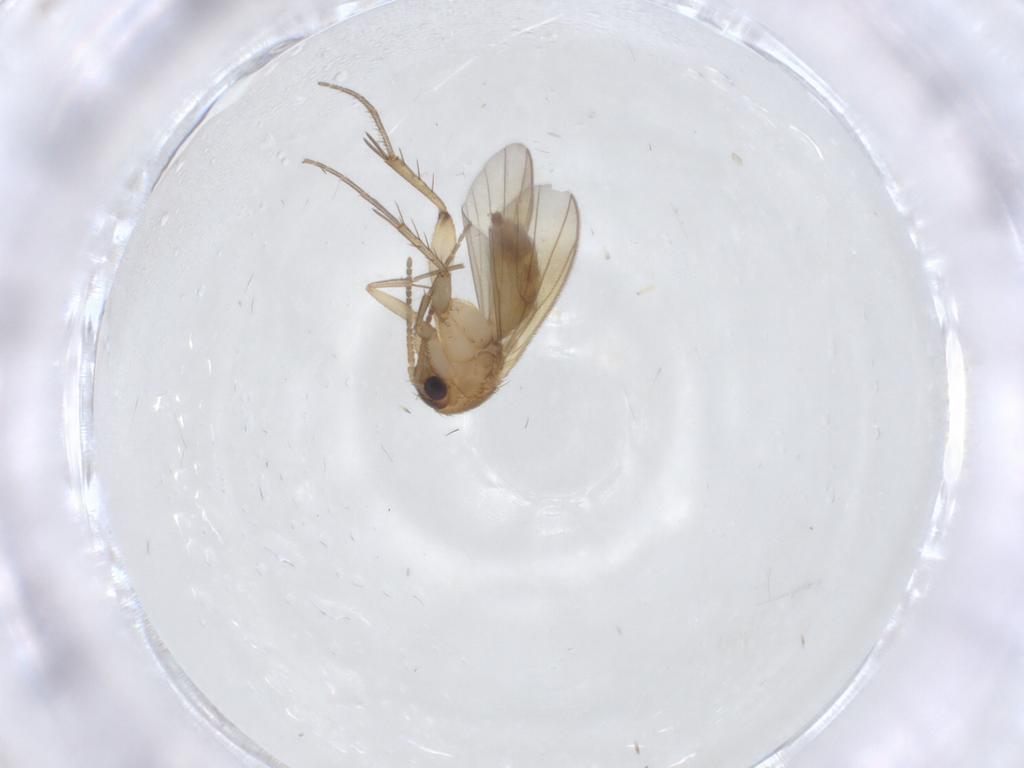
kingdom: Animalia
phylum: Arthropoda
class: Insecta
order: Diptera
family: Mycetophilidae
